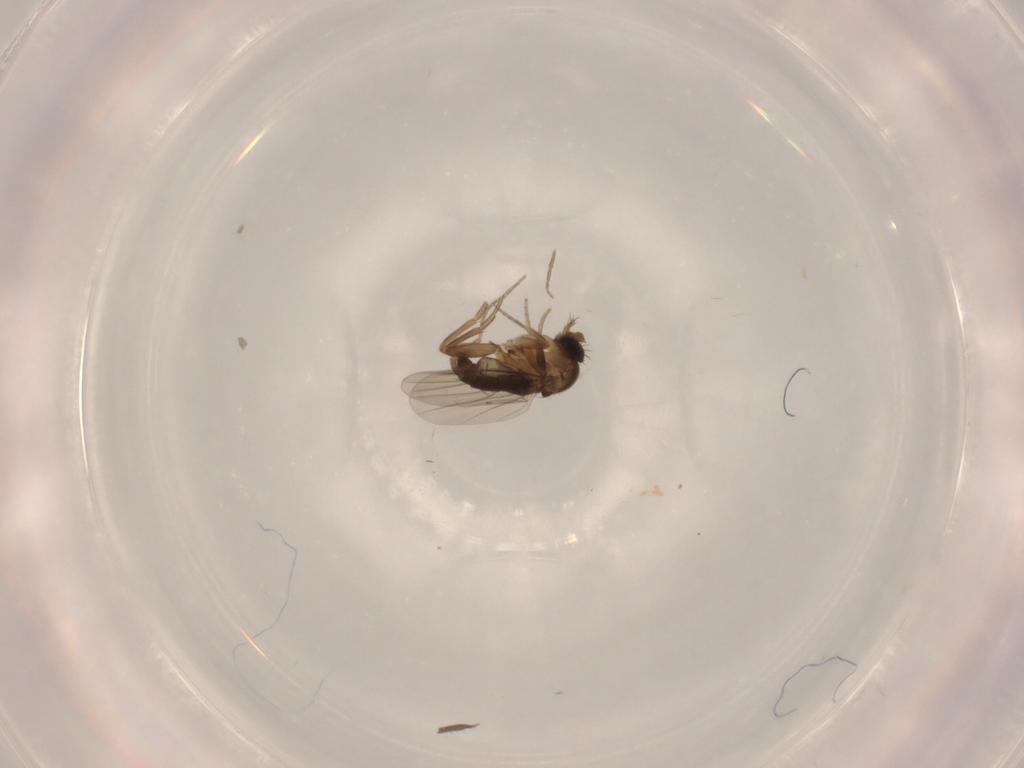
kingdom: Animalia
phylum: Arthropoda
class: Insecta
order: Diptera
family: Phoridae
